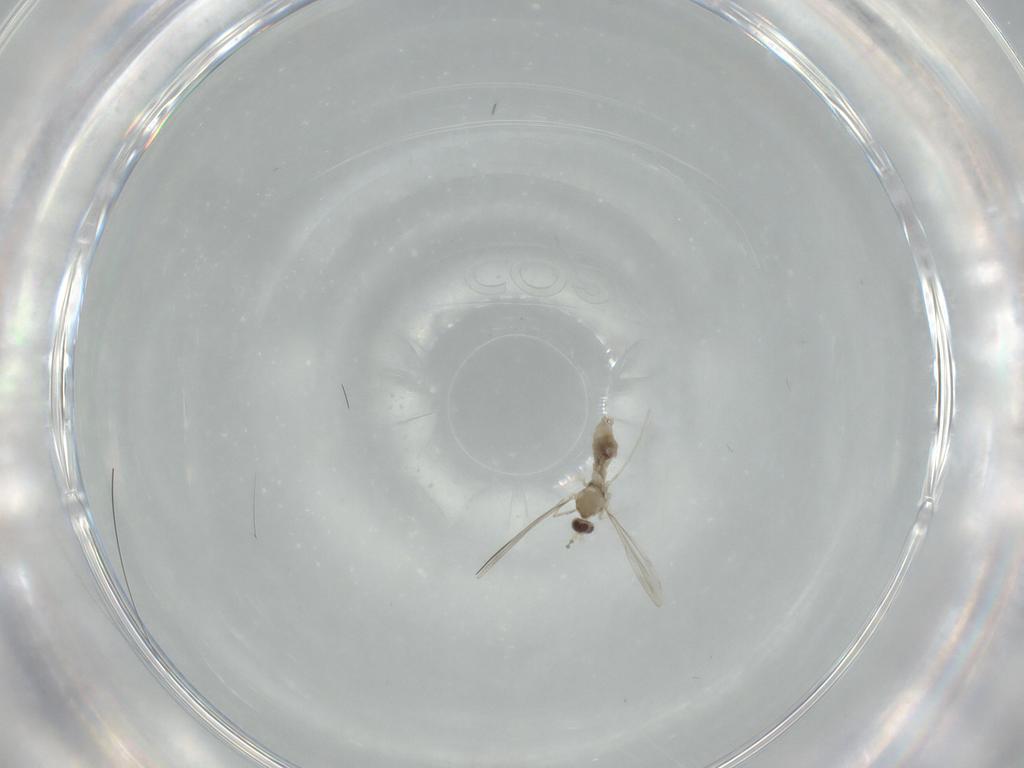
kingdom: Animalia
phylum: Arthropoda
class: Insecta
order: Diptera
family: Cecidomyiidae
